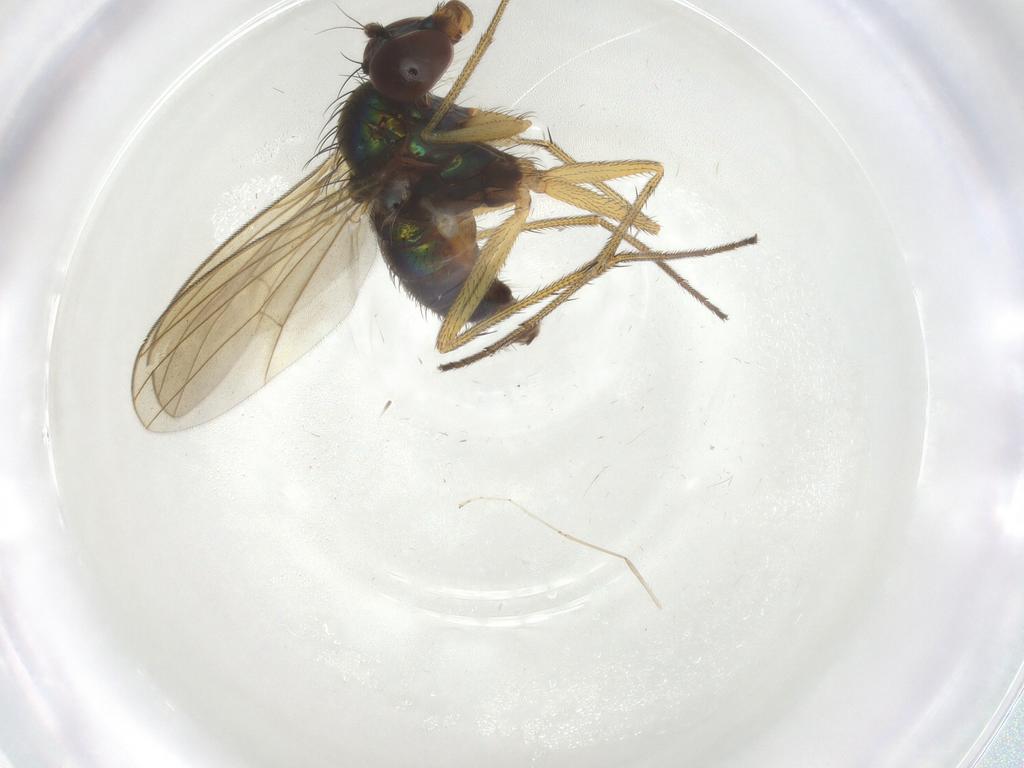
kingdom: Animalia
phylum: Arthropoda
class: Insecta
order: Diptera
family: Dolichopodidae
